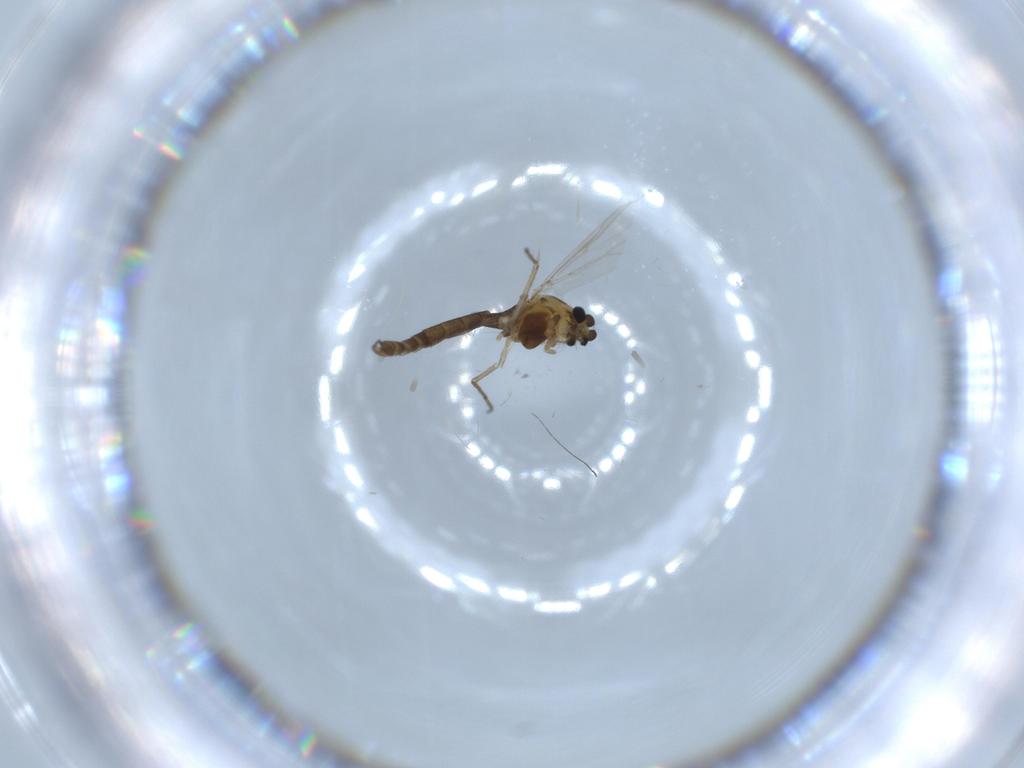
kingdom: Animalia
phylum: Arthropoda
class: Insecta
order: Diptera
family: Chironomidae
